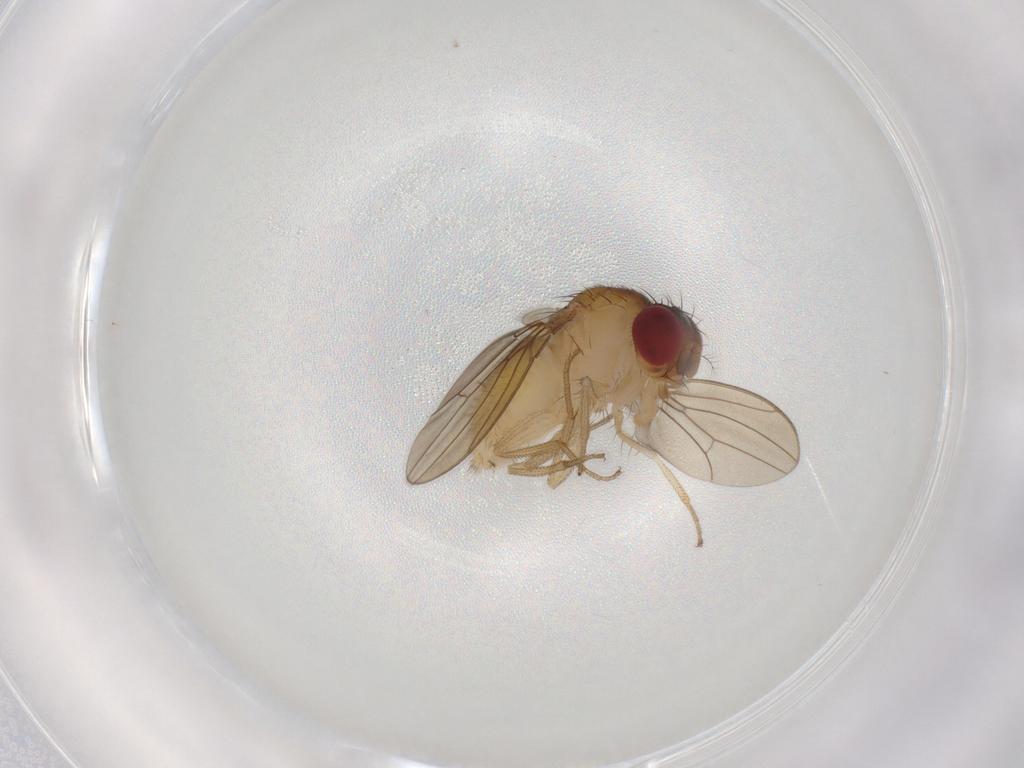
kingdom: Animalia
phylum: Arthropoda
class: Insecta
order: Diptera
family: Drosophilidae
